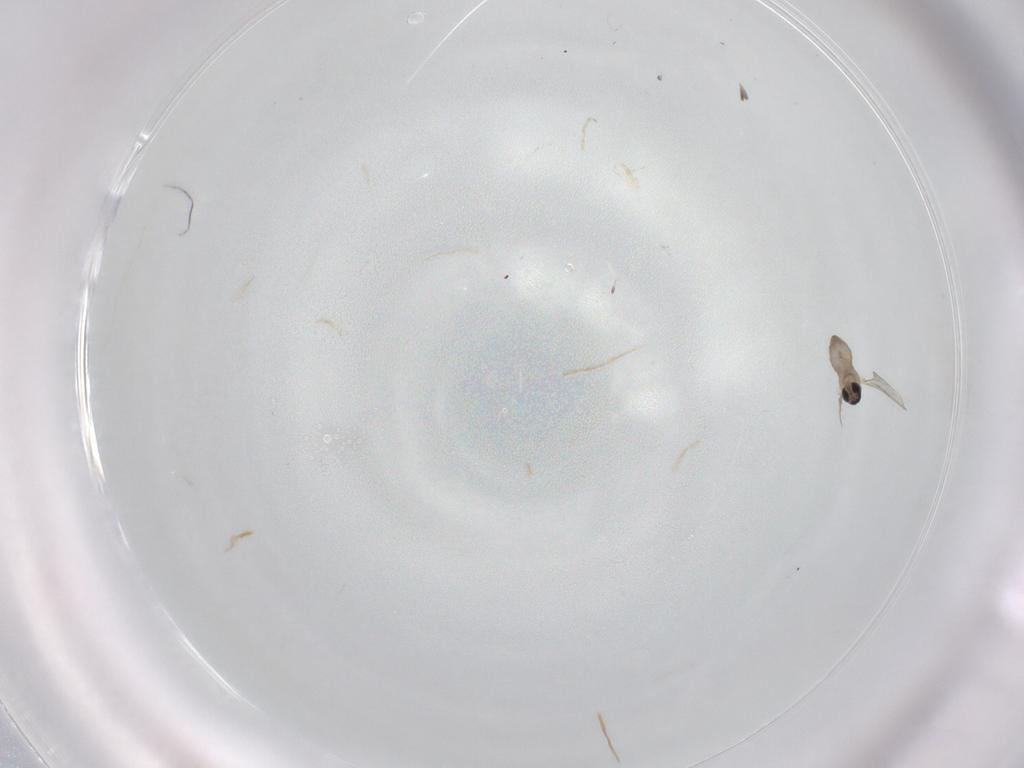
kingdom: Animalia
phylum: Arthropoda
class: Insecta
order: Diptera
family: Cecidomyiidae
